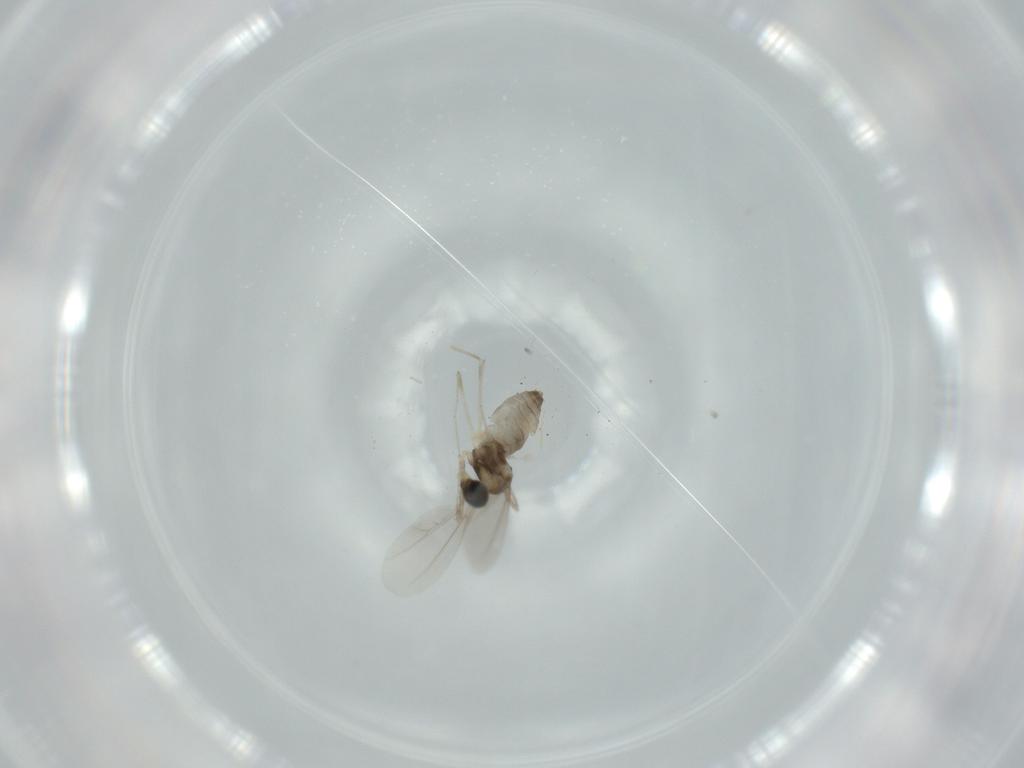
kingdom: Animalia
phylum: Arthropoda
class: Insecta
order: Diptera
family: Cecidomyiidae
